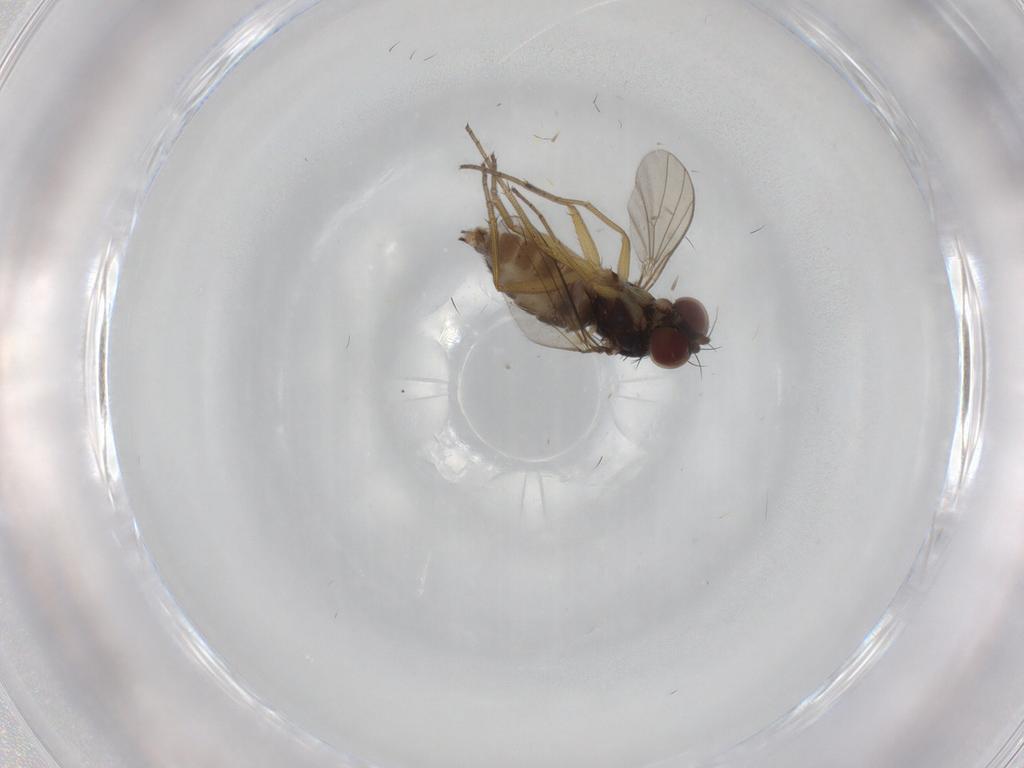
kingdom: Animalia
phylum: Arthropoda
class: Insecta
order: Diptera
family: Dolichopodidae
